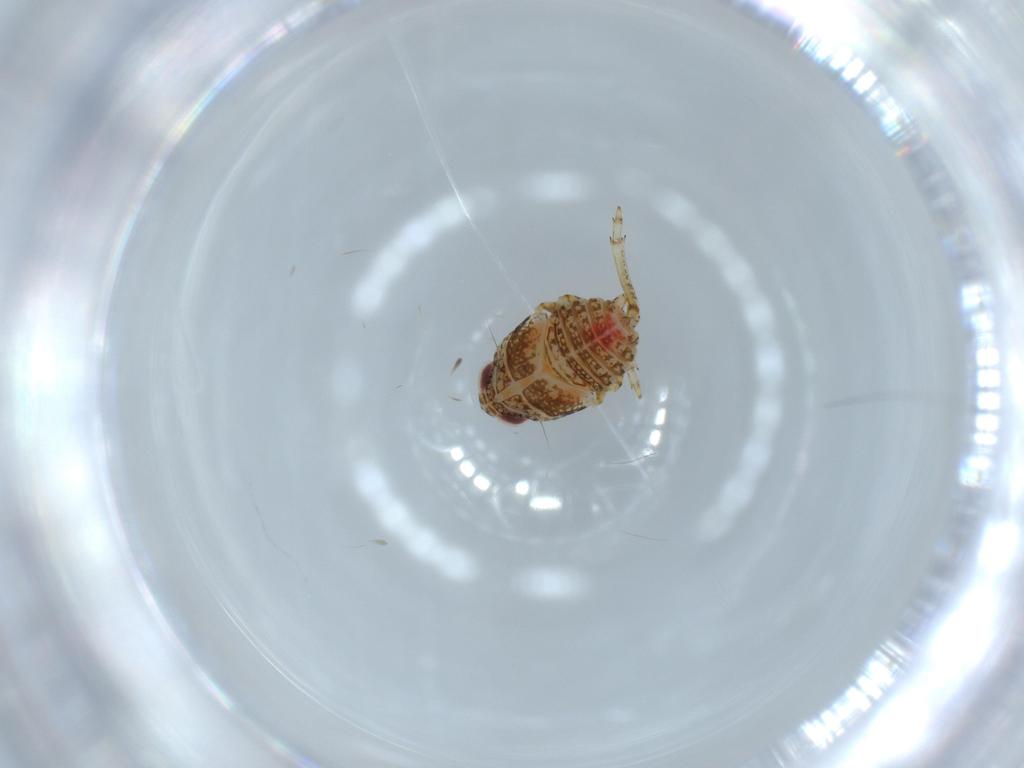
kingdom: Animalia
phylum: Arthropoda
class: Insecta
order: Hemiptera
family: Issidae
